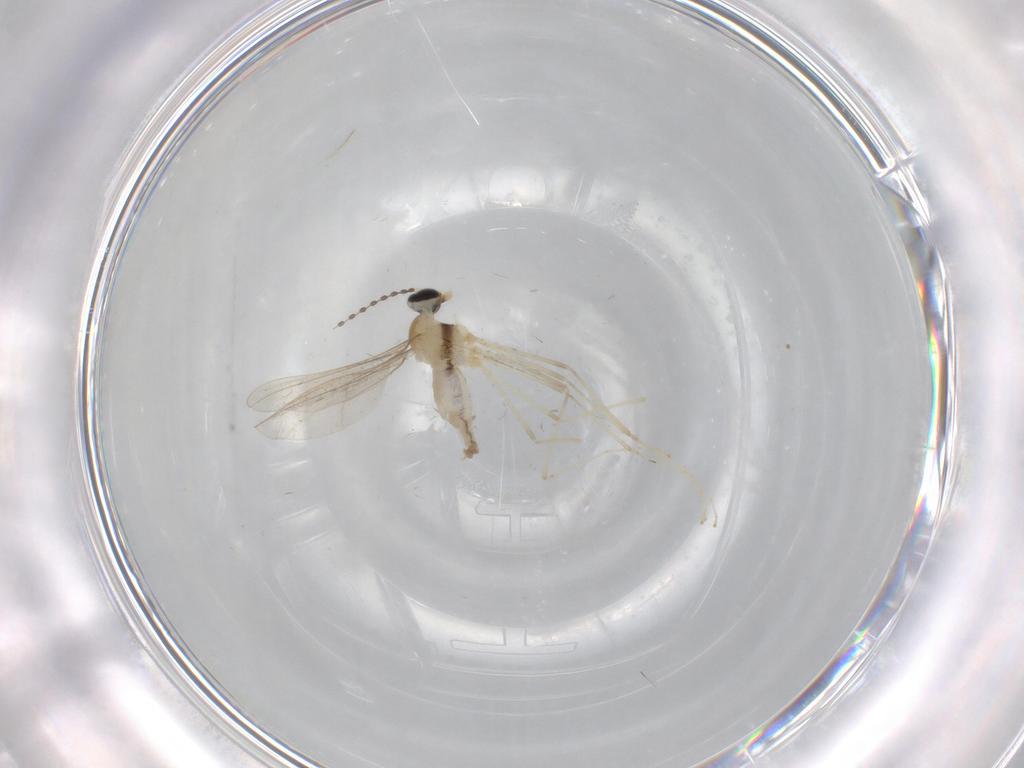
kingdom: Animalia
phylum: Arthropoda
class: Insecta
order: Diptera
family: Cecidomyiidae
